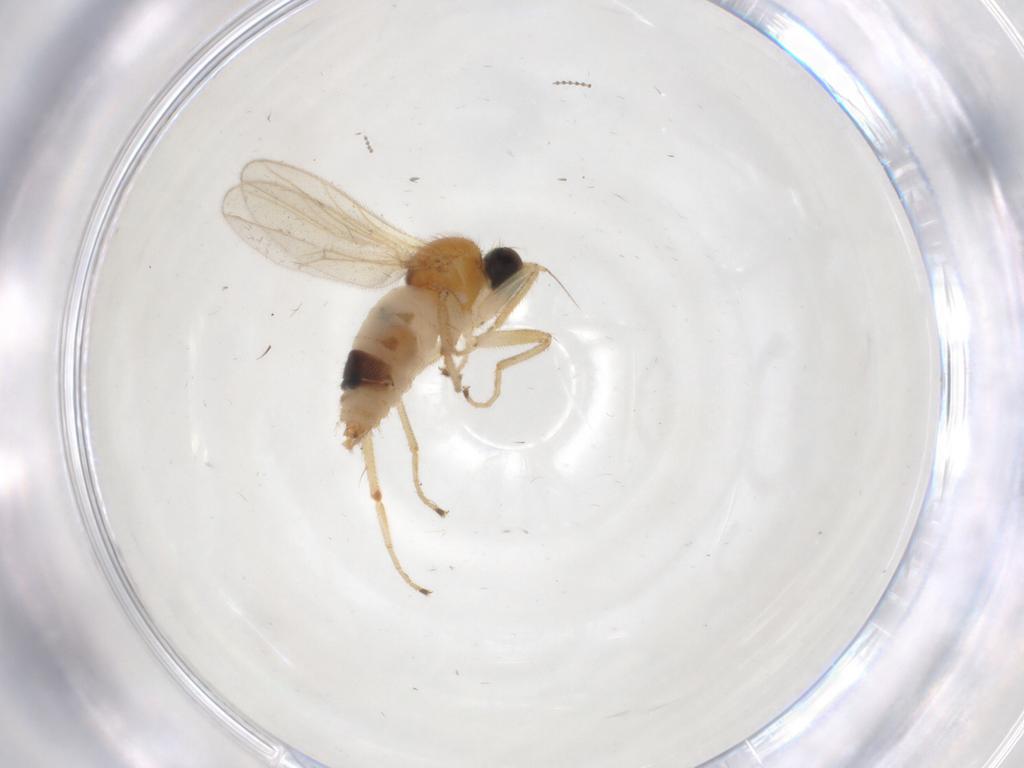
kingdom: Animalia
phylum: Arthropoda
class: Insecta
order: Diptera
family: Hybotidae
